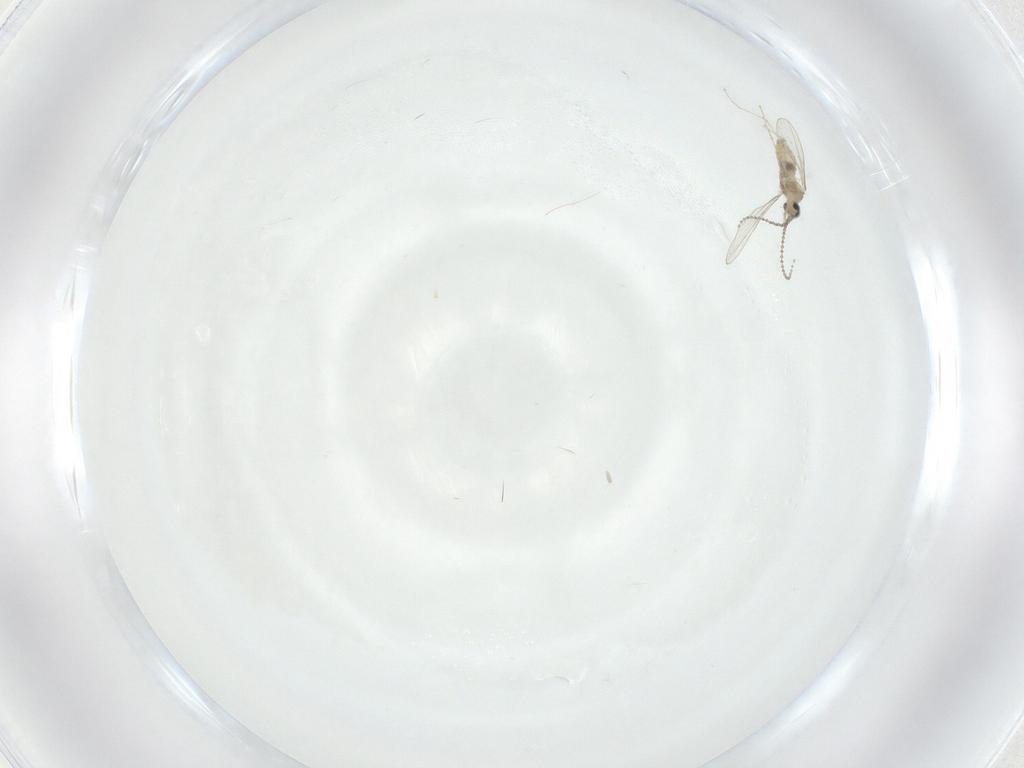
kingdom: Animalia
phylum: Arthropoda
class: Insecta
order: Diptera
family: Cecidomyiidae
